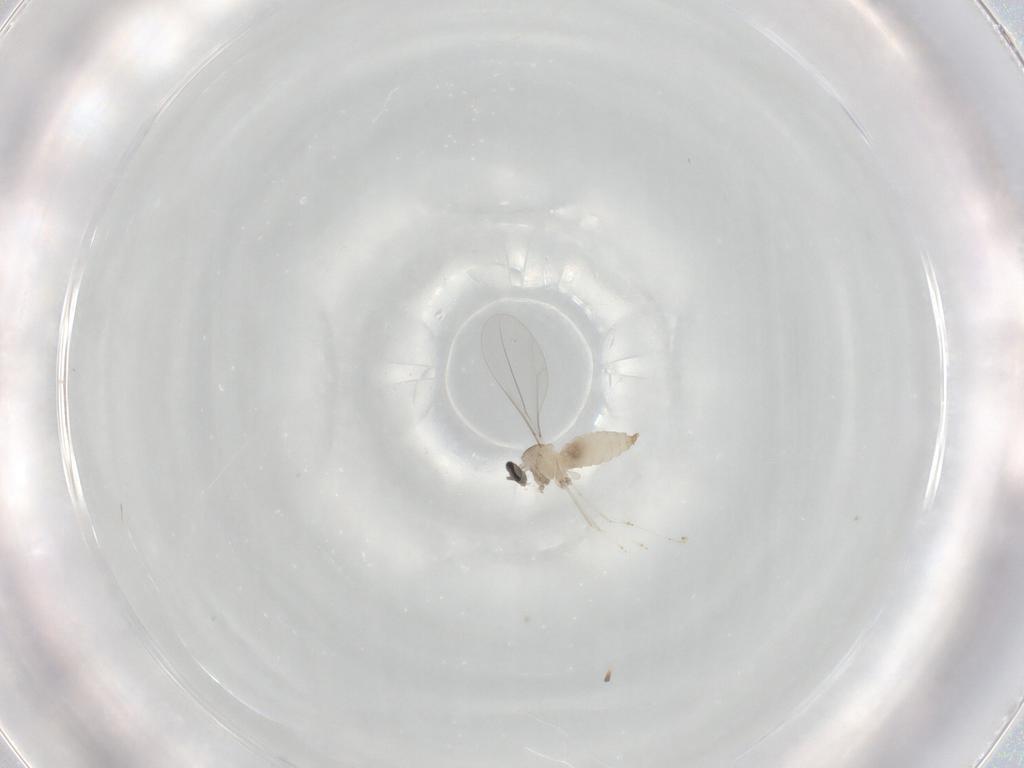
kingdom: Animalia
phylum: Arthropoda
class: Insecta
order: Diptera
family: Cecidomyiidae
